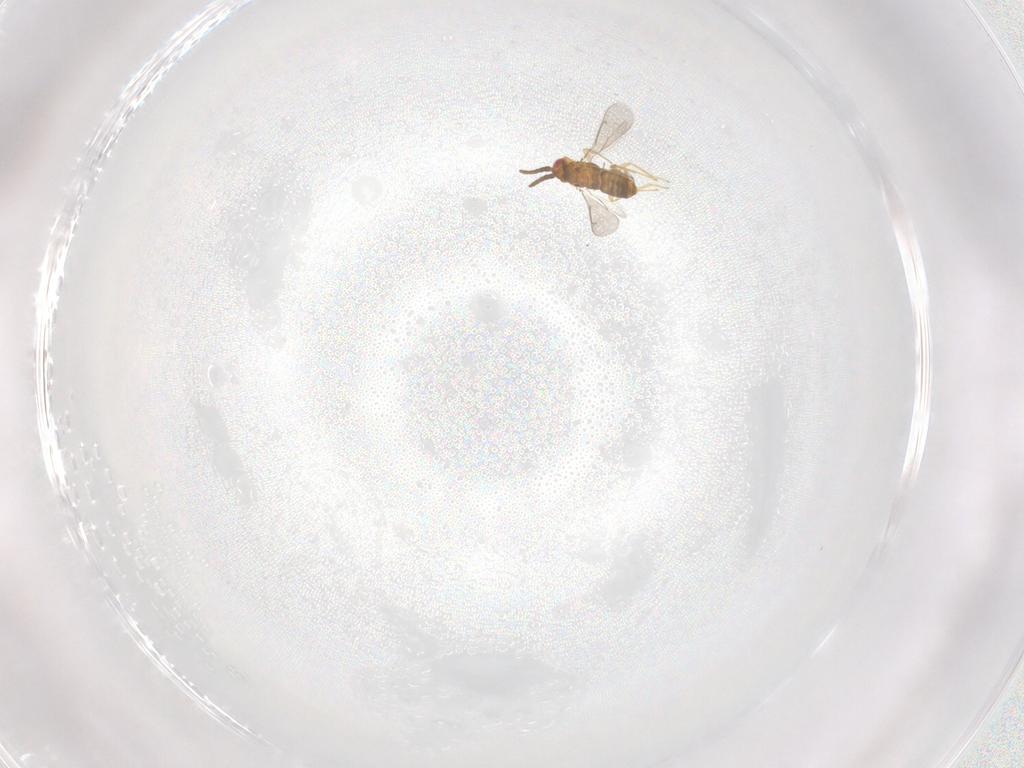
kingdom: Animalia
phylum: Arthropoda
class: Insecta
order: Hymenoptera
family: Aphelinidae
